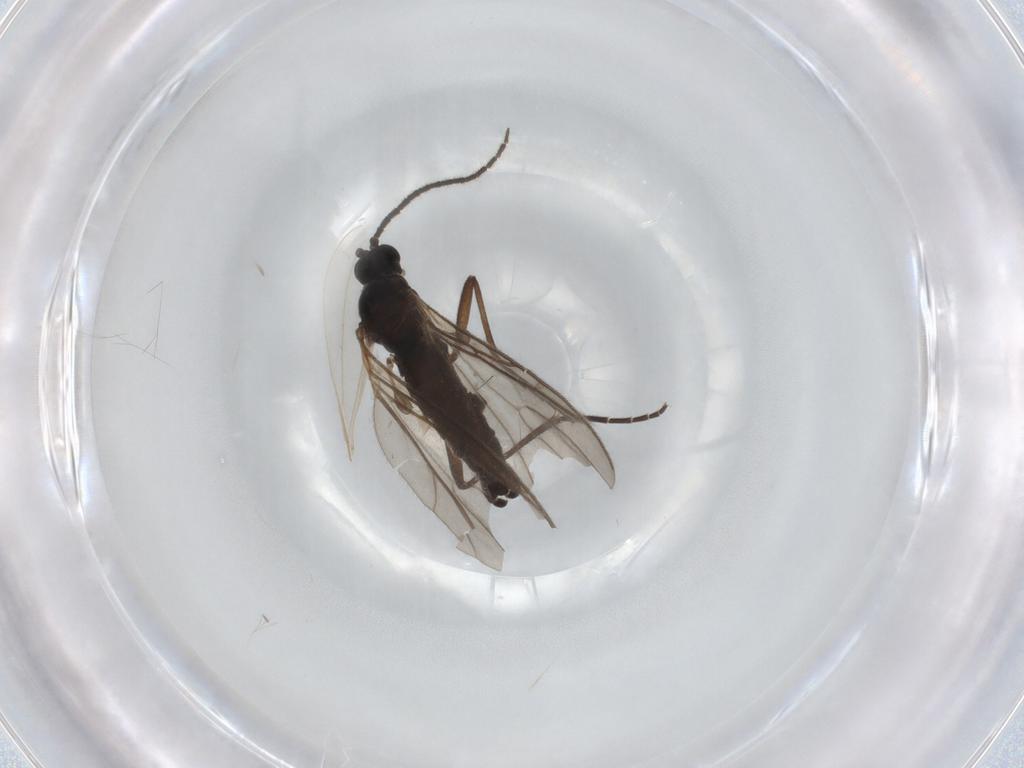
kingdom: Animalia
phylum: Arthropoda
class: Insecta
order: Diptera
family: Sciaridae
